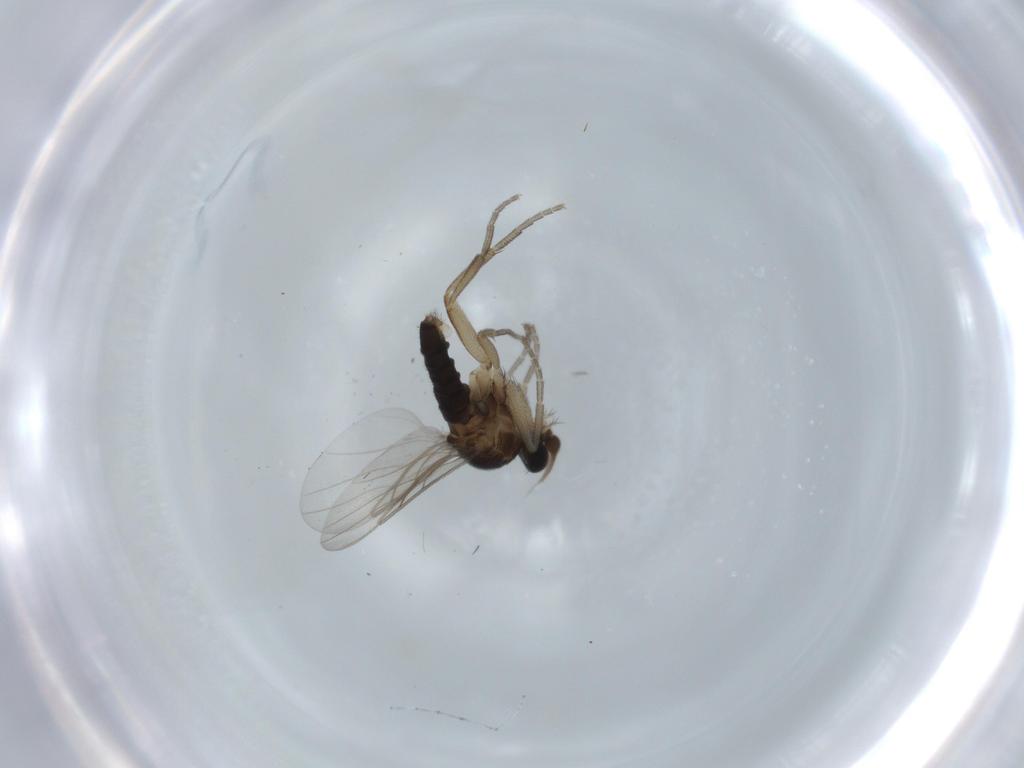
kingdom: Animalia
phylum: Arthropoda
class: Insecta
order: Diptera
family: Phoridae
